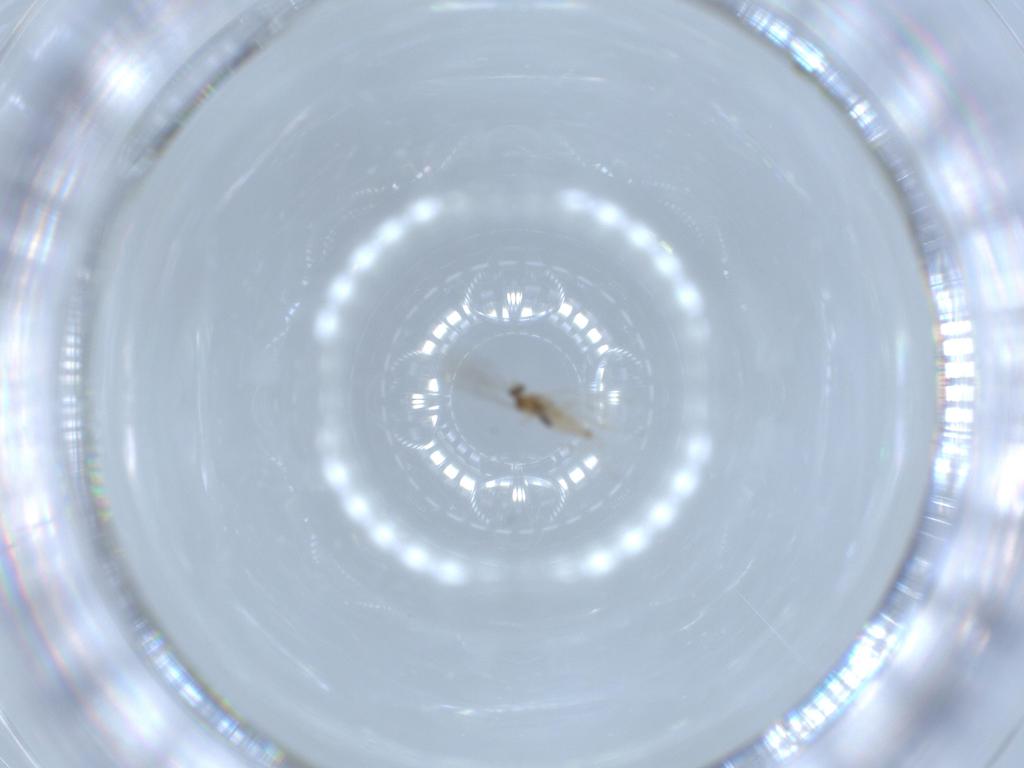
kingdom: Animalia
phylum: Arthropoda
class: Insecta
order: Diptera
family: Cecidomyiidae
